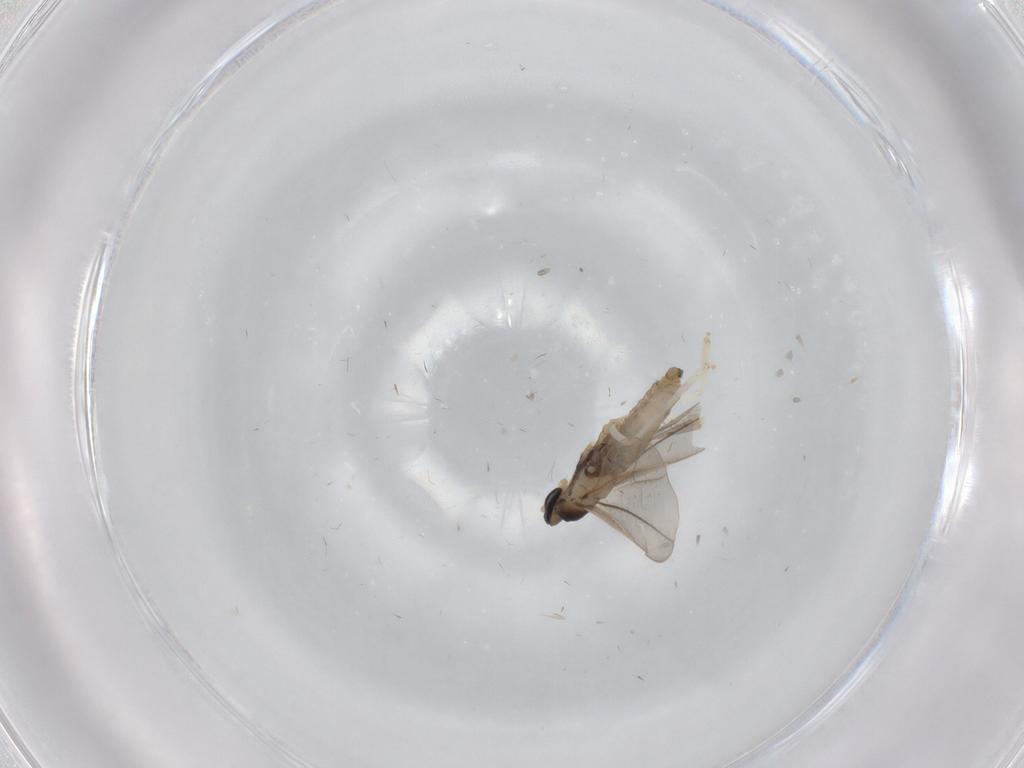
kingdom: Animalia
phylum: Arthropoda
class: Insecta
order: Diptera
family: Cecidomyiidae
